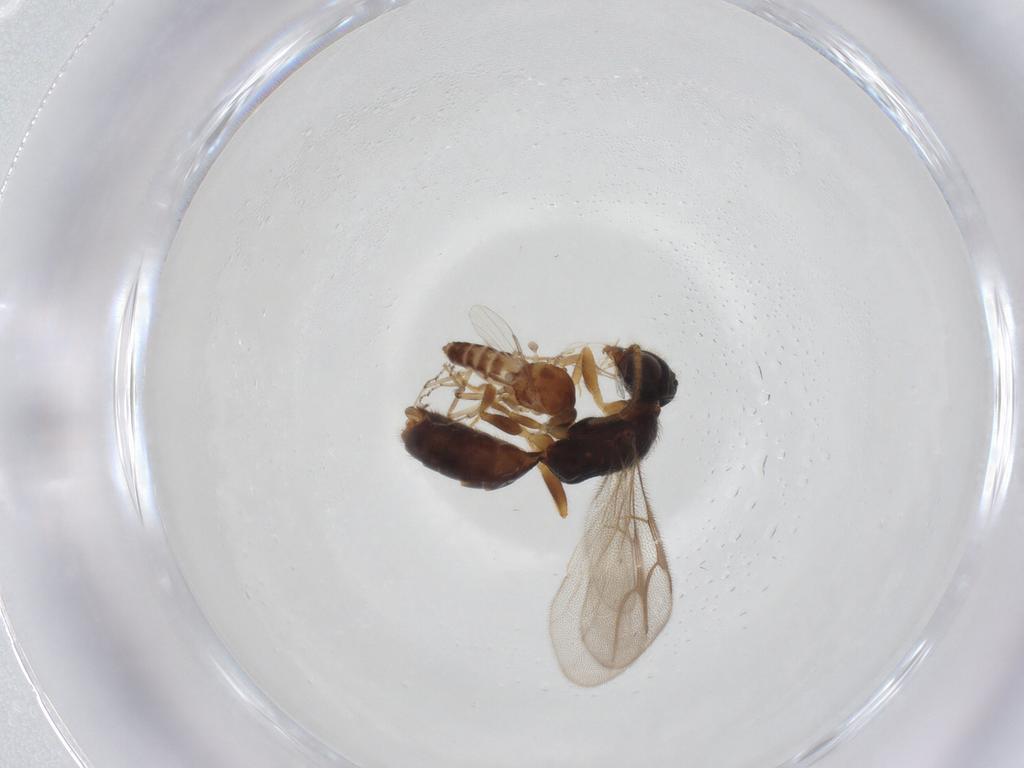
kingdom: Animalia
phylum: Arthropoda
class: Insecta
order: Diptera
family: Ceratopogonidae
